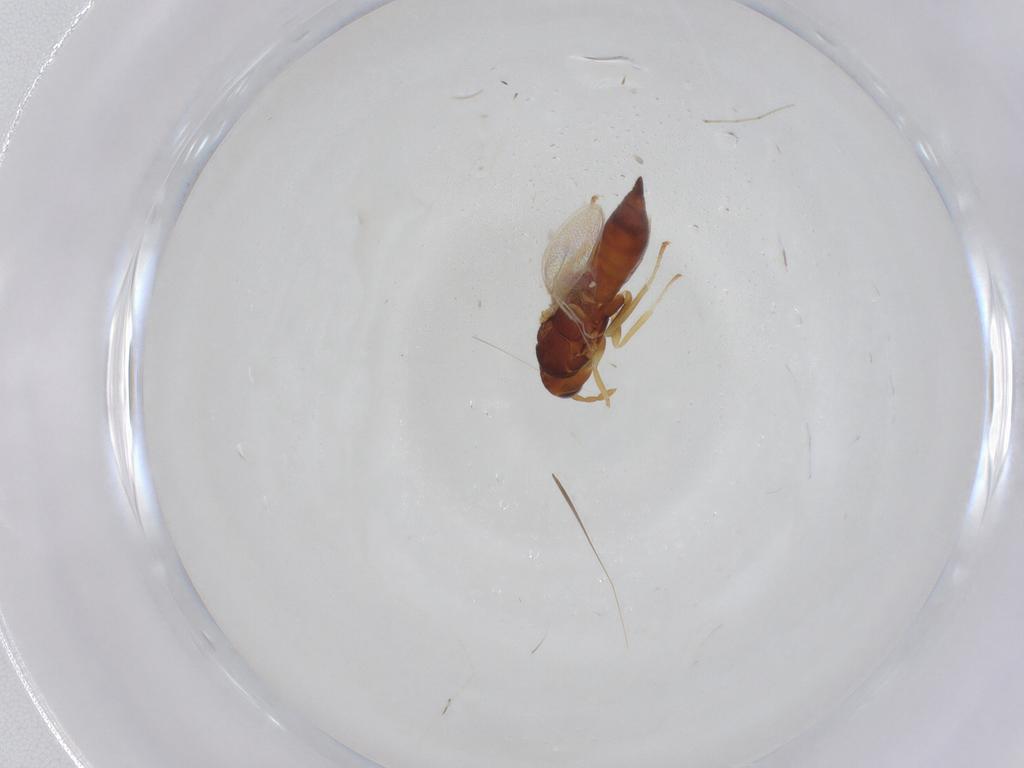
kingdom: Animalia
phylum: Arthropoda
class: Insecta
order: Hymenoptera
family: Eulophidae
